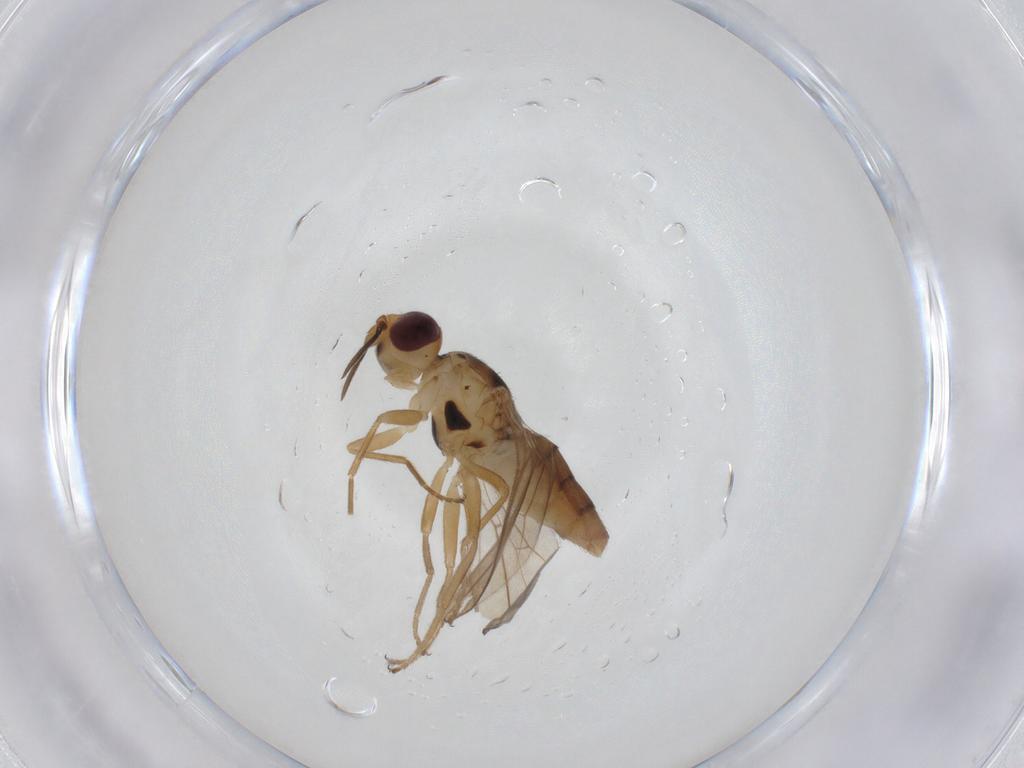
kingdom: Animalia
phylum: Arthropoda
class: Insecta
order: Diptera
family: Chloropidae
